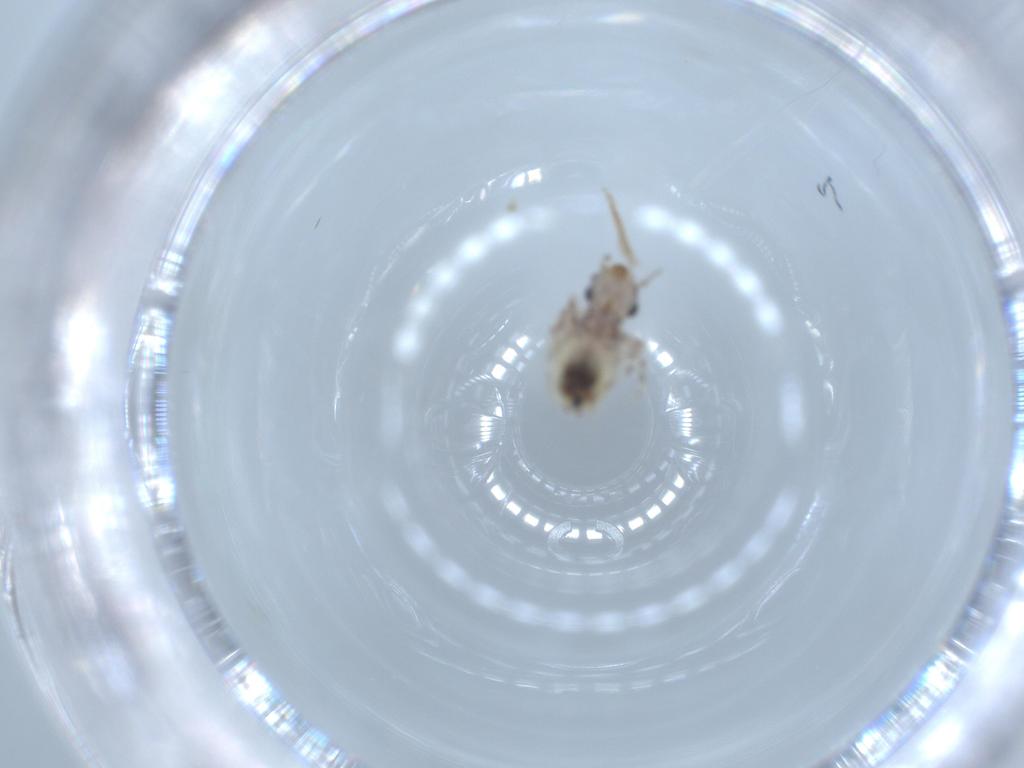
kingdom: Animalia
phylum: Arthropoda
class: Insecta
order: Psocodea
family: Lepidopsocidae
